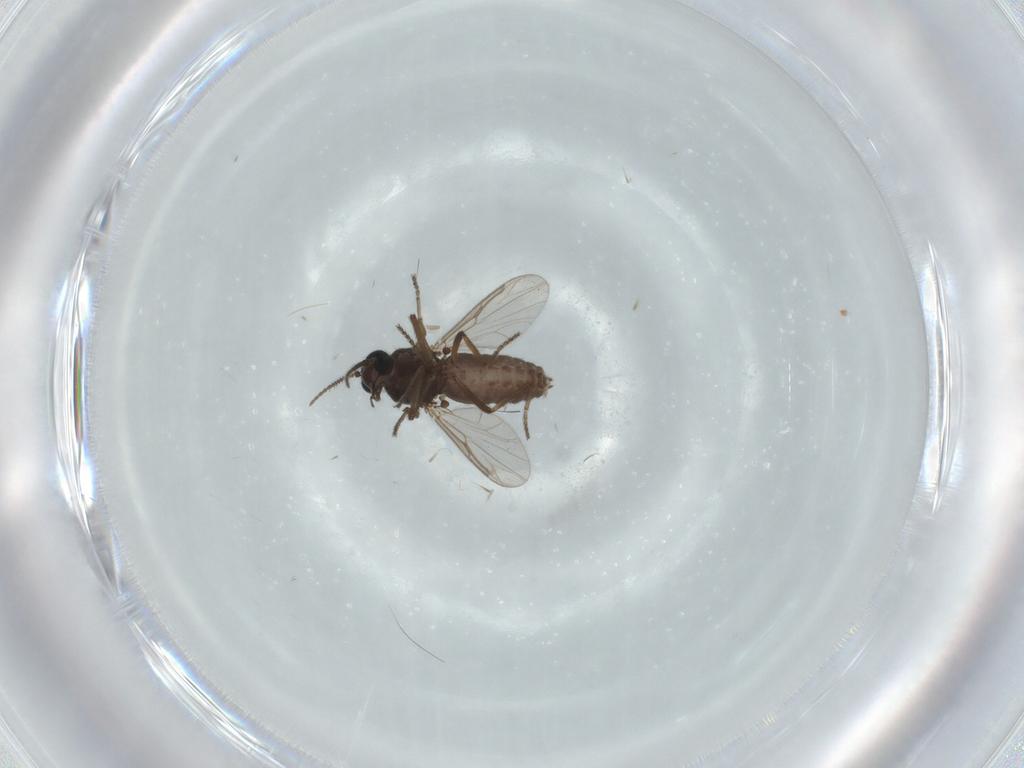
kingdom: Animalia
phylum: Arthropoda
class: Insecta
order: Diptera
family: Ceratopogonidae
